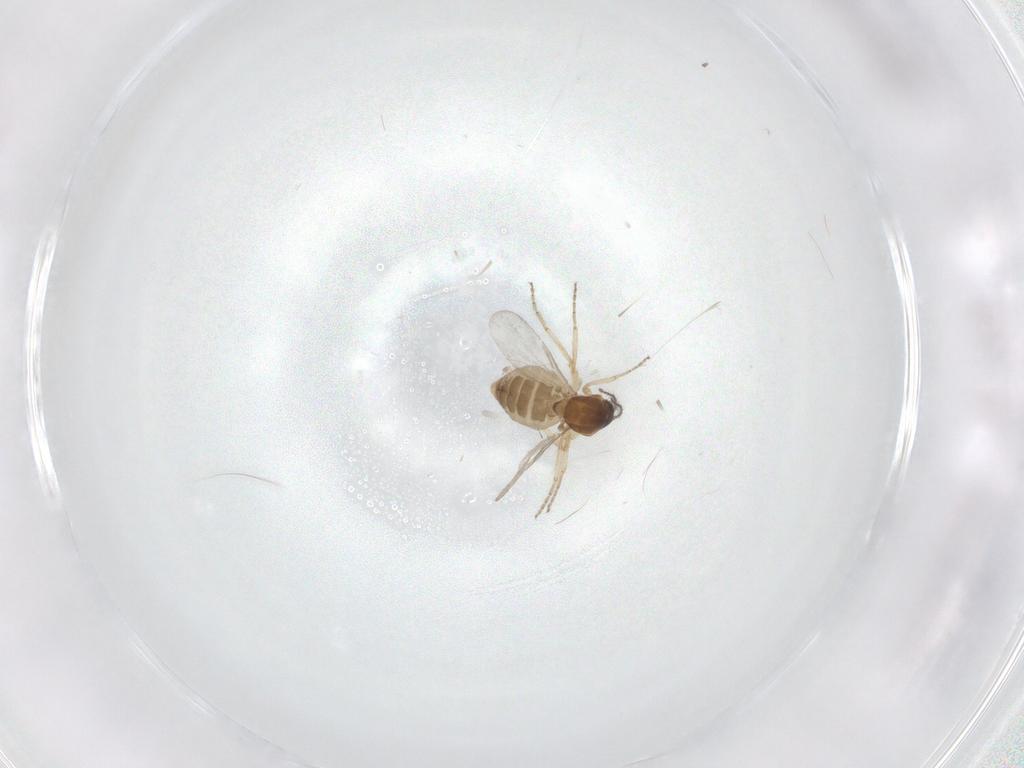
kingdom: Animalia
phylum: Arthropoda
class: Insecta
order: Diptera
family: Ceratopogonidae
